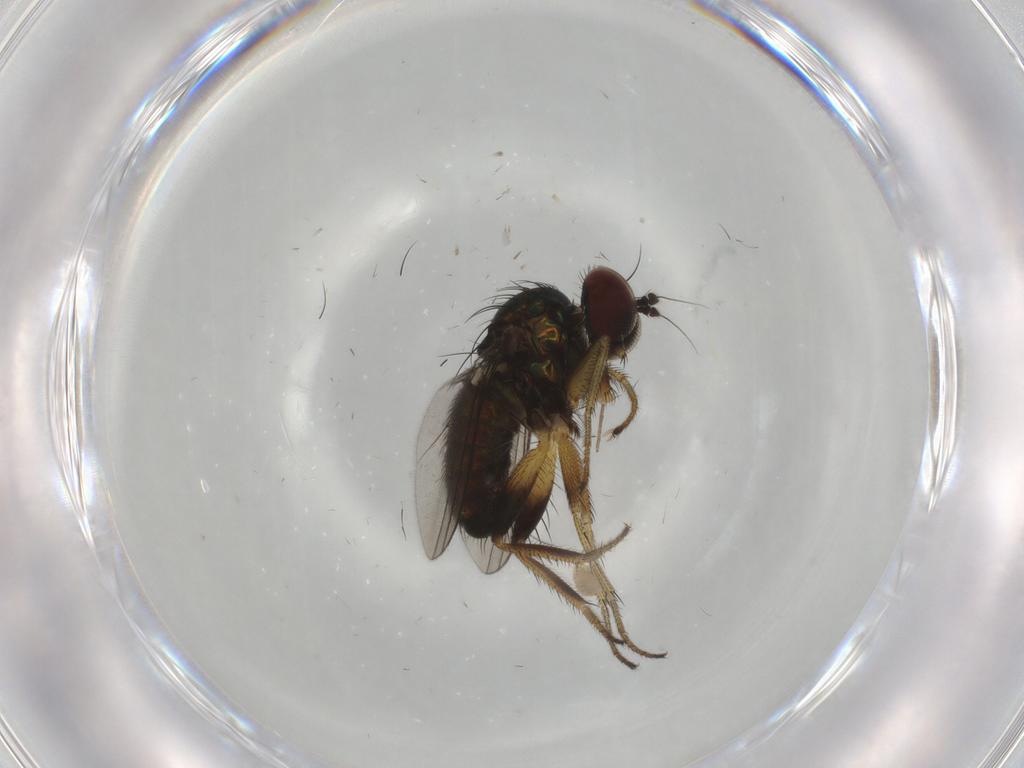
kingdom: Animalia
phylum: Arthropoda
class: Insecta
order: Diptera
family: Dolichopodidae
